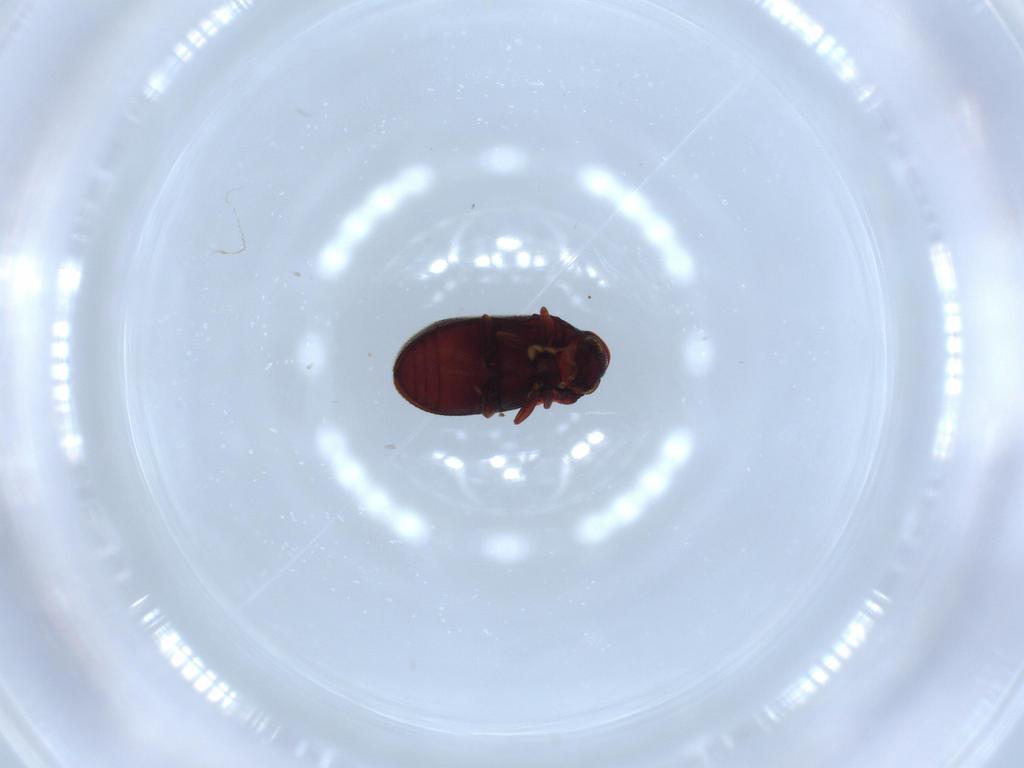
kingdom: Animalia
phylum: Arthropoda
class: Insecta
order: Coleoptera
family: Anobiidae
